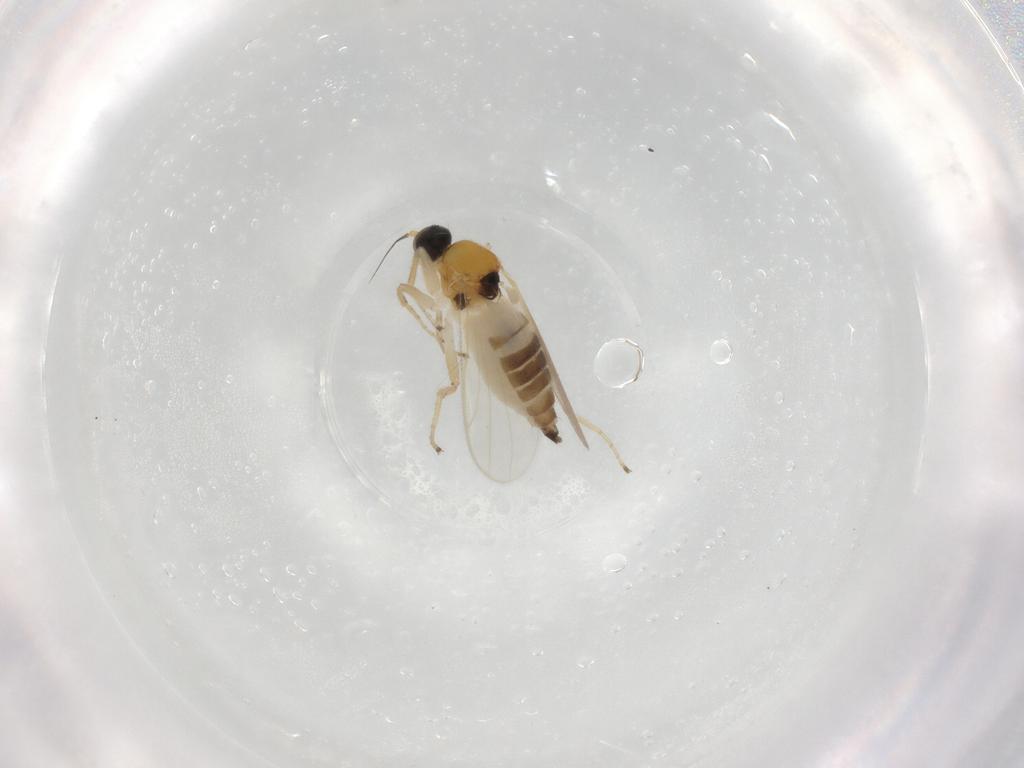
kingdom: Animalia
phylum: Arthropoda
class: Insecta
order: Diptera
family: Hybotidae
